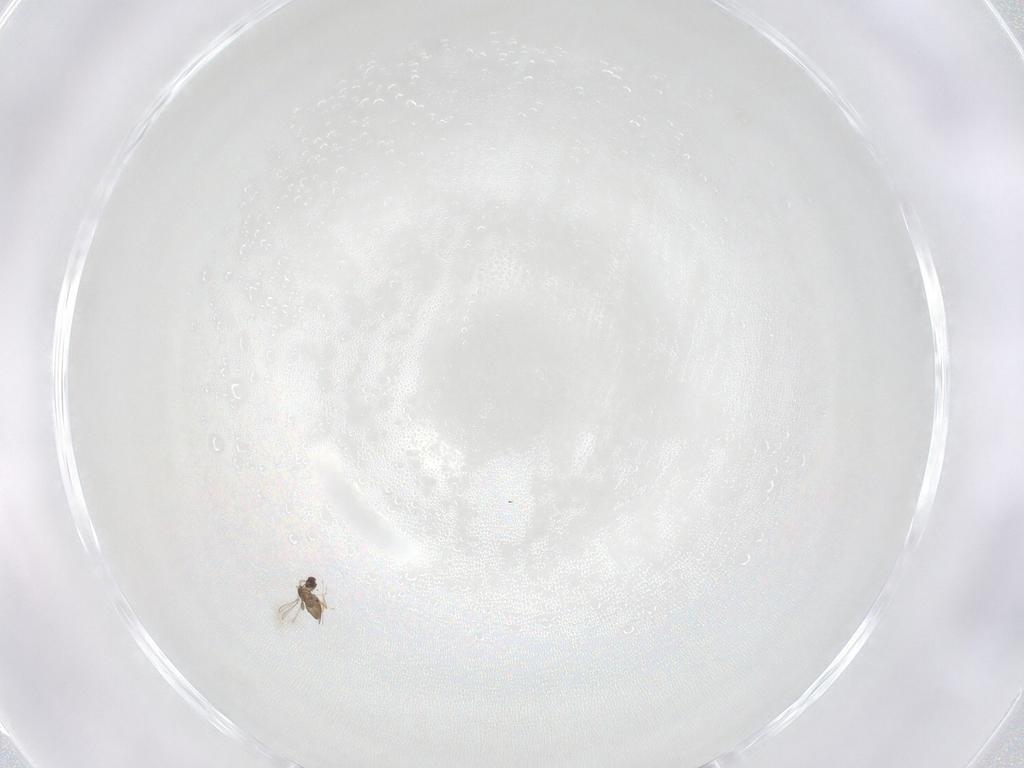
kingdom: Animalia
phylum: Arthropoda
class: Insecta
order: Hymenoptera
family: Mymaridae
